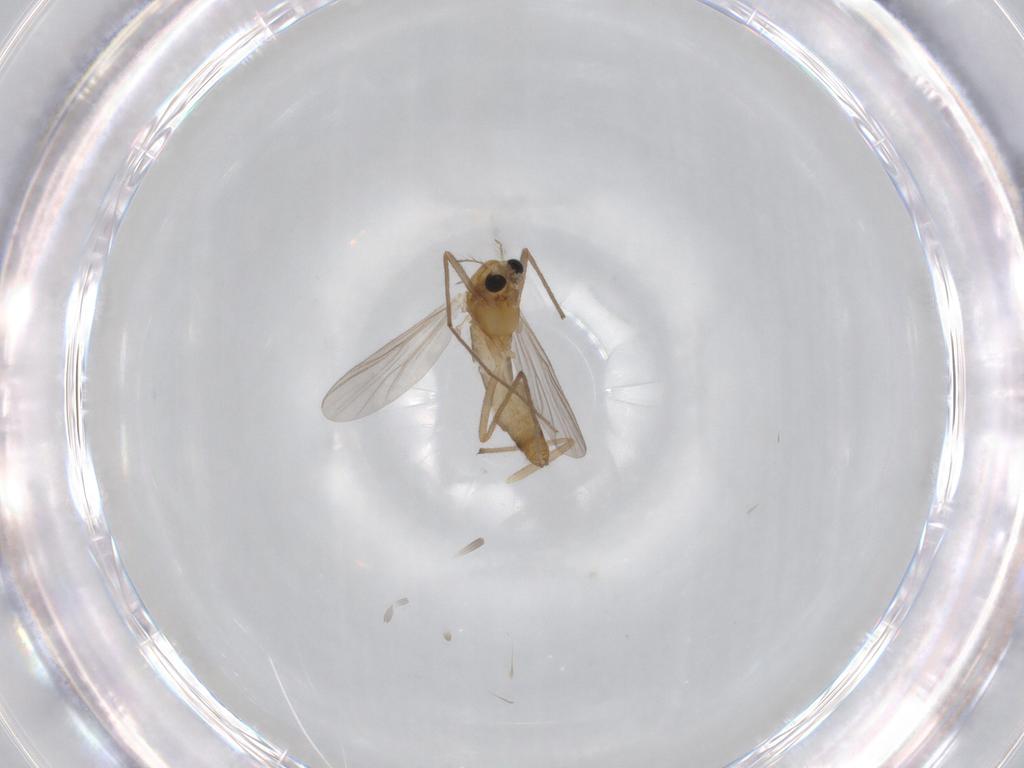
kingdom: Animalia
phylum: Arthropoda
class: Insecta
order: Diptera
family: Chironomidae
